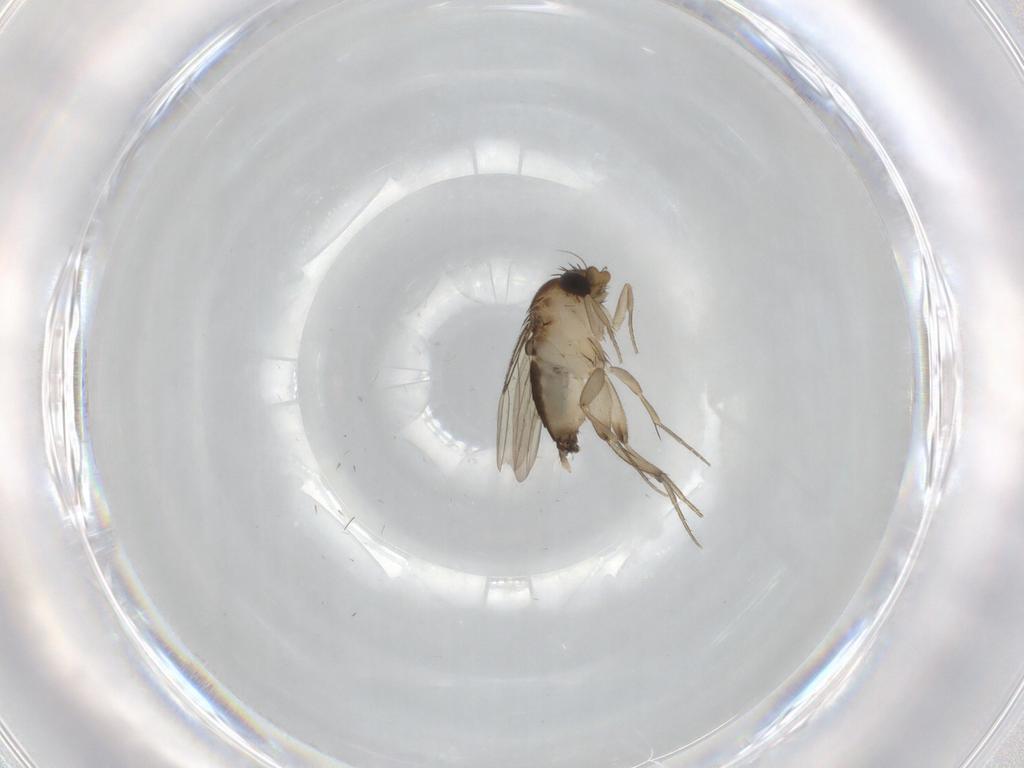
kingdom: Animalia
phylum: Arthropoda
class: Insecta
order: Diptera
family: Phoridae
